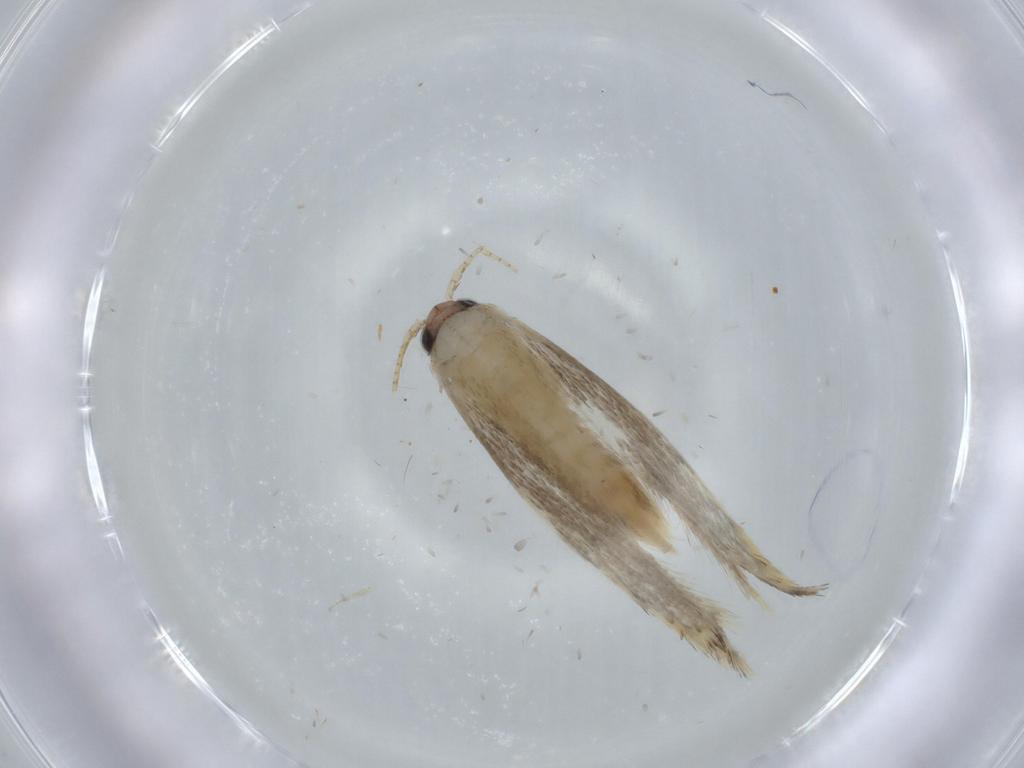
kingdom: Animalia
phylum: Arthropoda
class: Insecta
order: Lepidoptera
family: Tineidae
